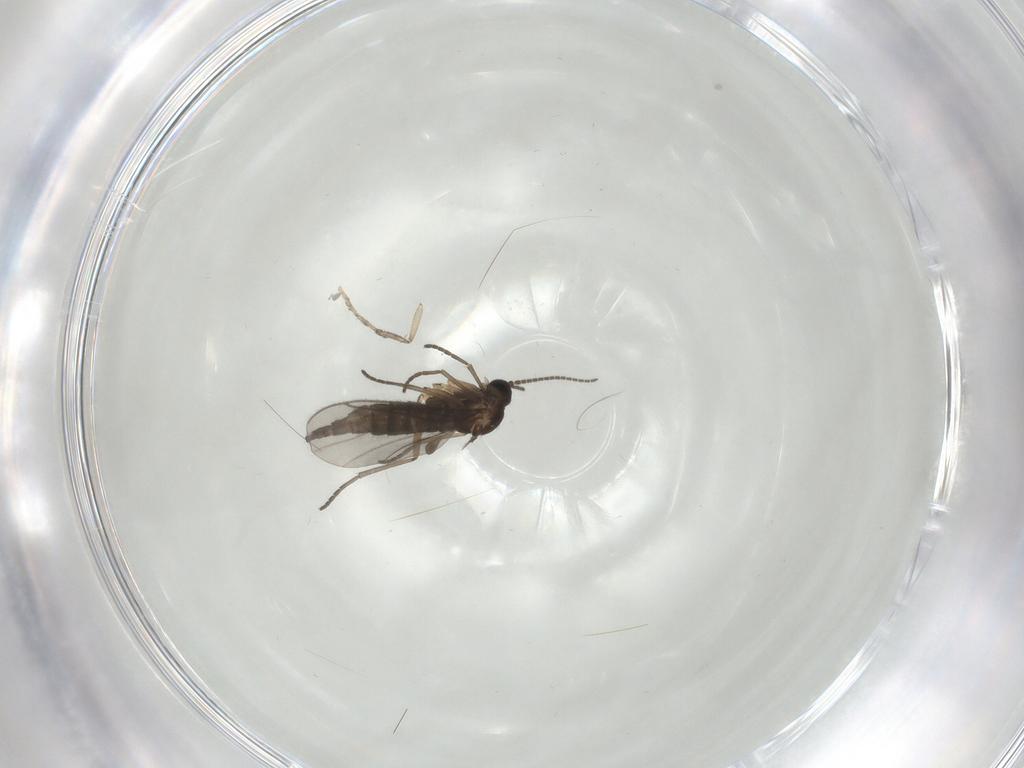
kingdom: Animalia
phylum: Arthropoda
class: Insecta
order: Diptera
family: Sciaridae
